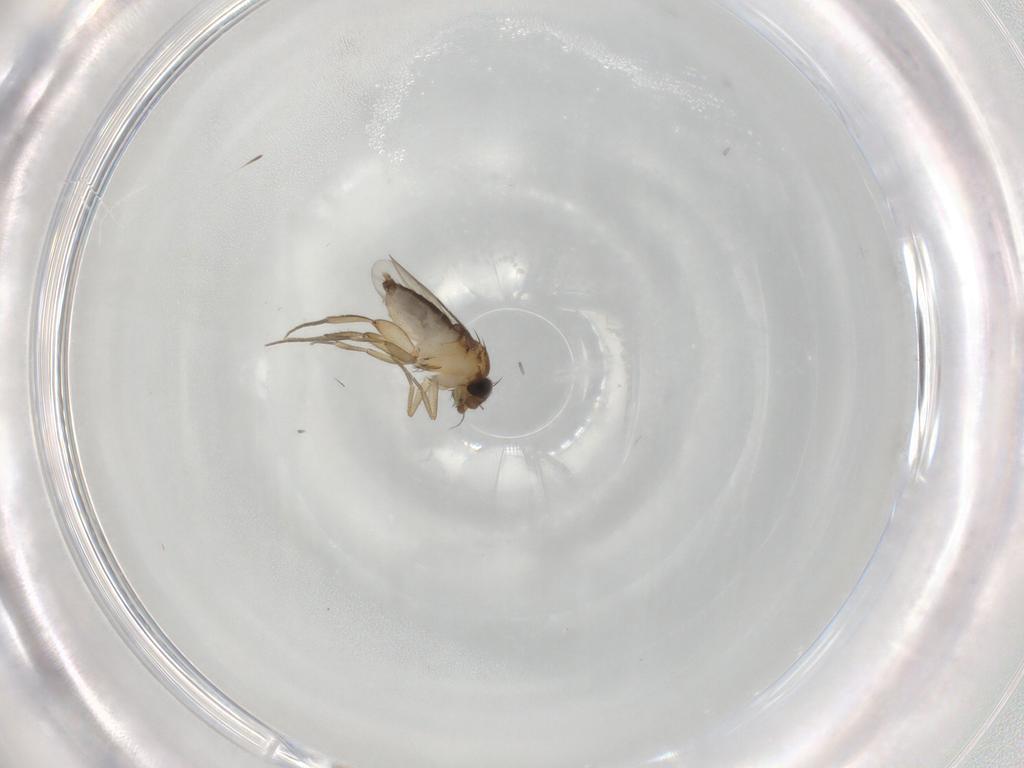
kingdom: Animalia
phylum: Arthropoda
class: Insecta
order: Diptera
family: Phoridae
